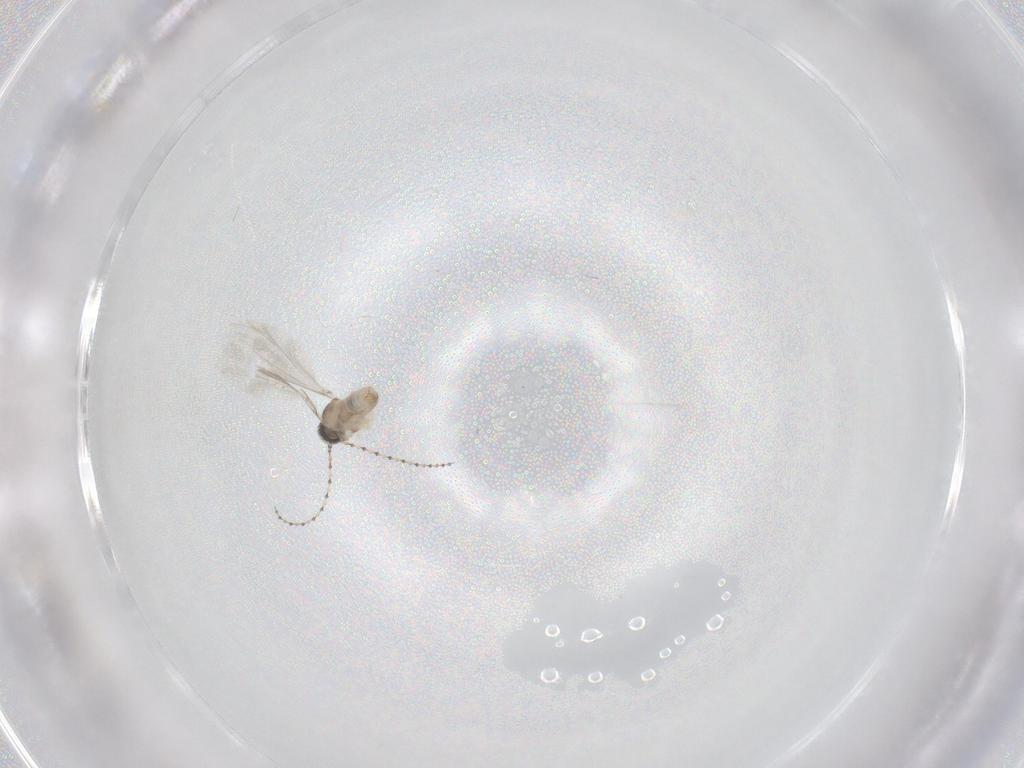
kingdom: Animalia
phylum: Arthropoda
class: Insecta
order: Diptera
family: Cecidomyiidae
